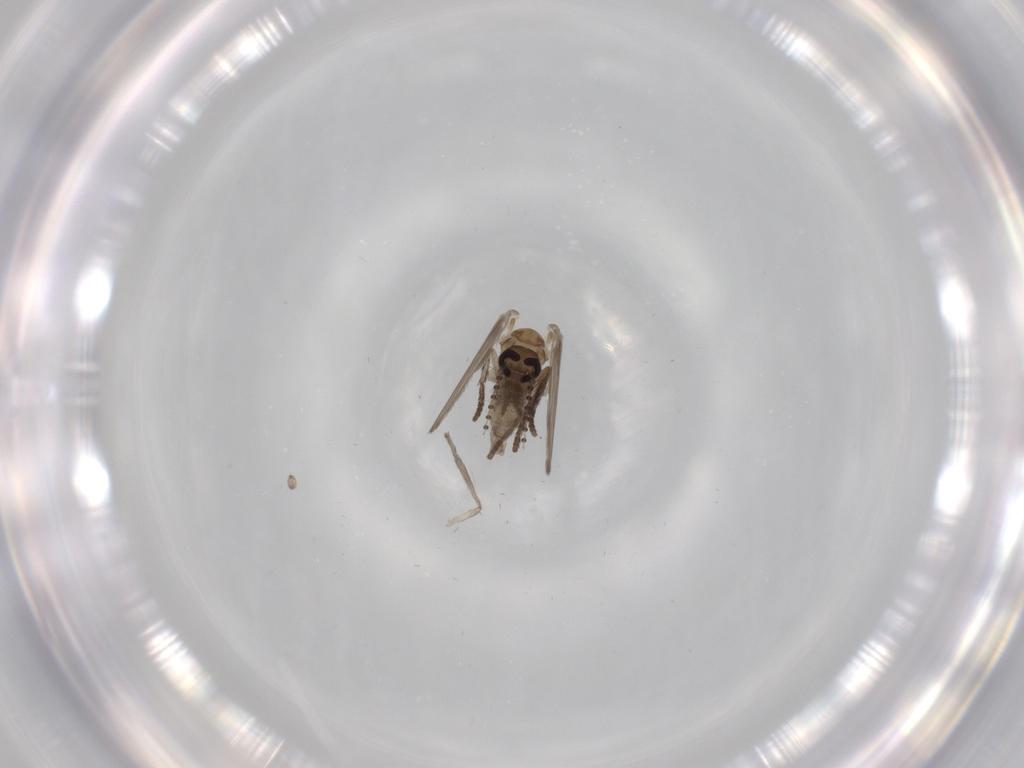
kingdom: Animalia
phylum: Arthropoda
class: Insecta
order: Diptera
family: Psychodidae
